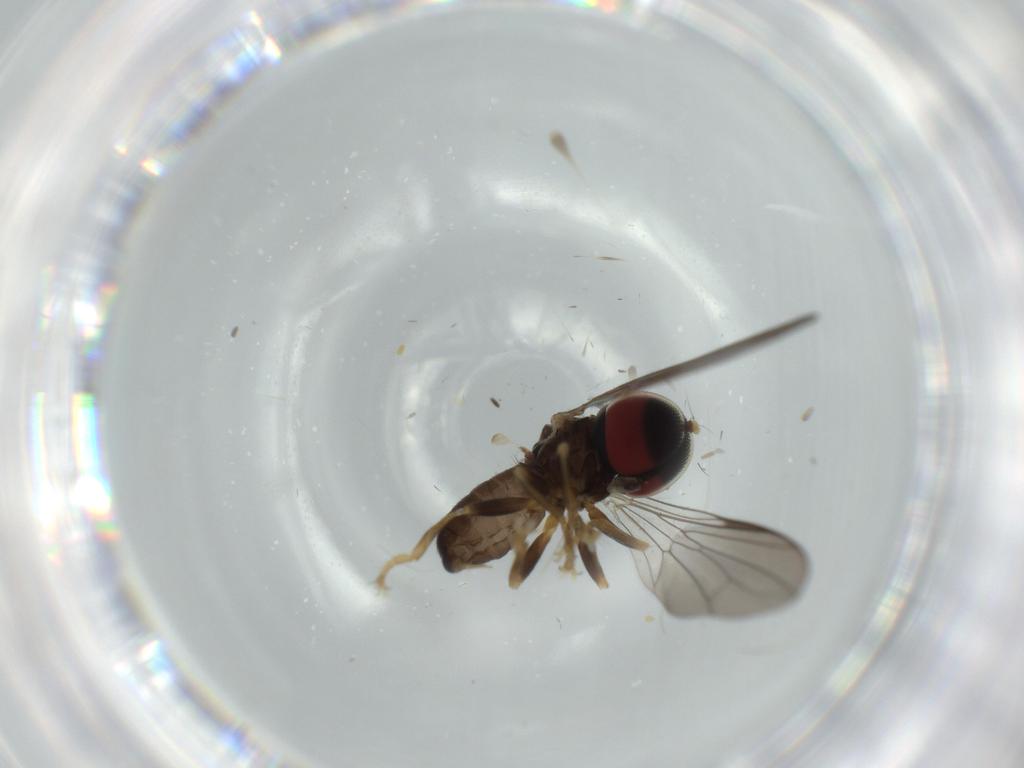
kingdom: Animalia
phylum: Arthropoda
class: Insecta
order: Diptera
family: Pipunculidae
